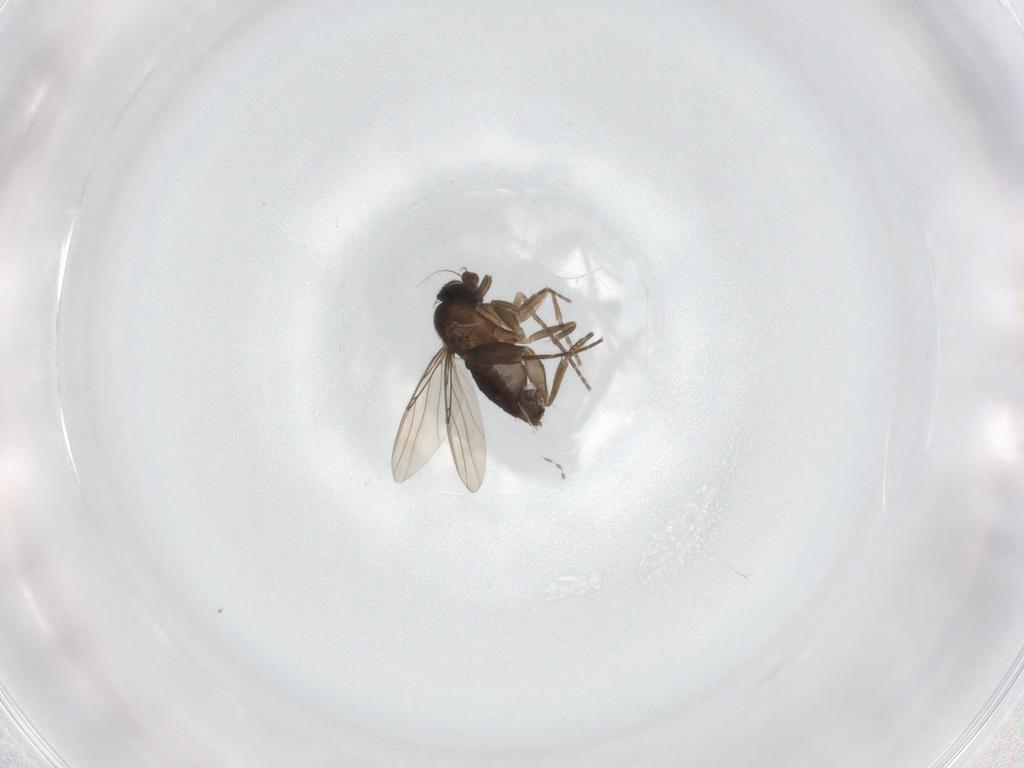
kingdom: Animalia
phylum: Arthropoda
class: Insecta
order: Diptera
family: Phoridae
